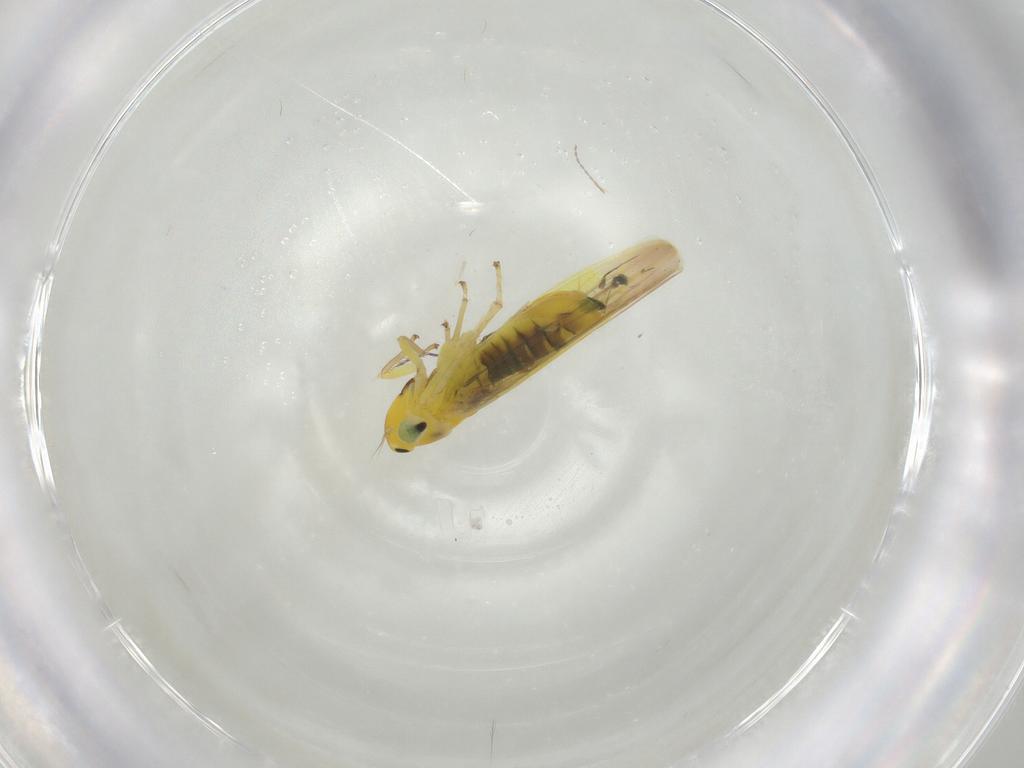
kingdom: Animalia
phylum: Arthropoda
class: Insecta
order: Hemiptera
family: Cicadellidae
